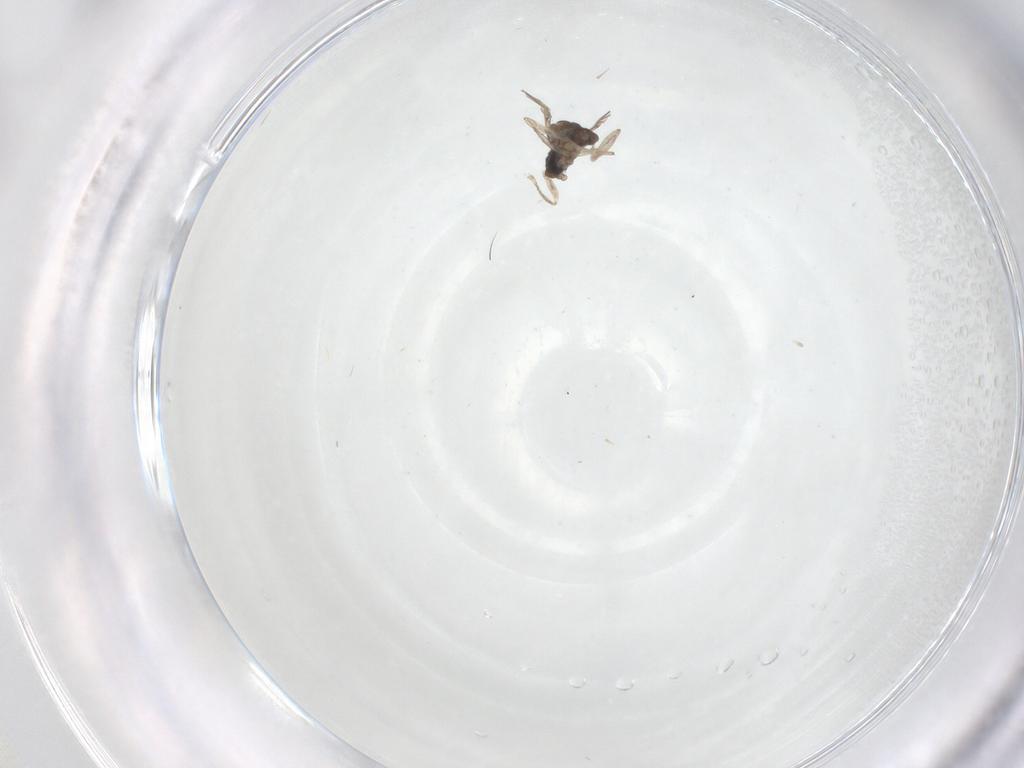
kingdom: Animalia
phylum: Arthropoda
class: Insecta
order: Diptera
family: Cecidomyiidae
